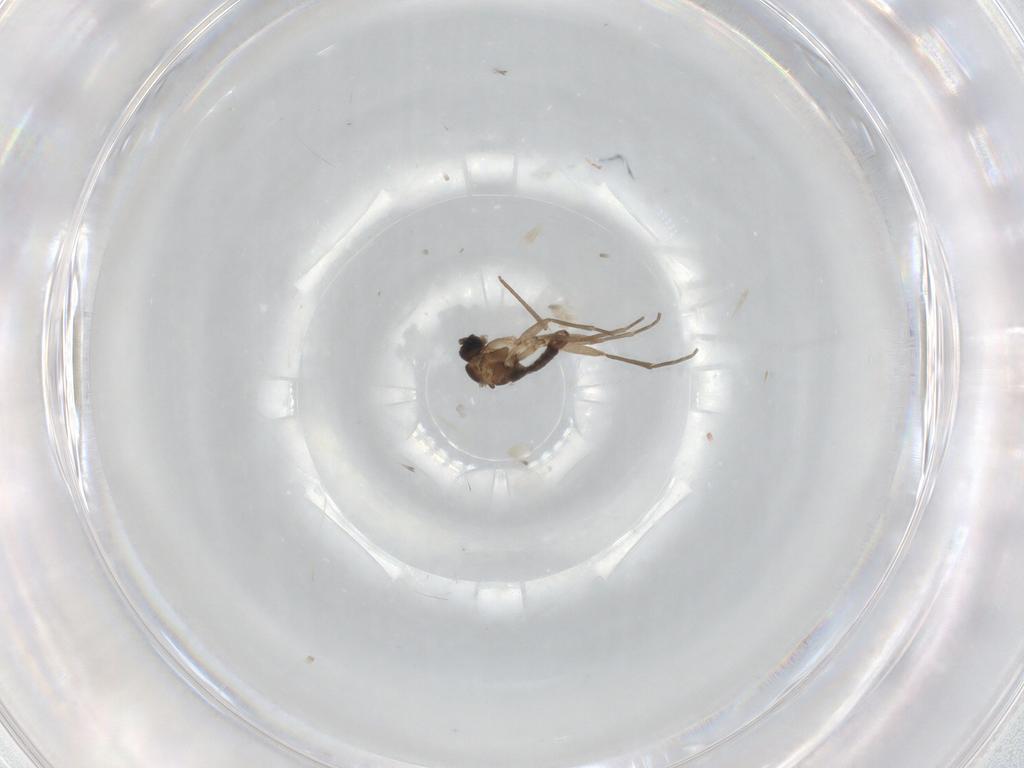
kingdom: Animalia
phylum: Arthropoda
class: Insecta
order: Diptera
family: Sciaridae
